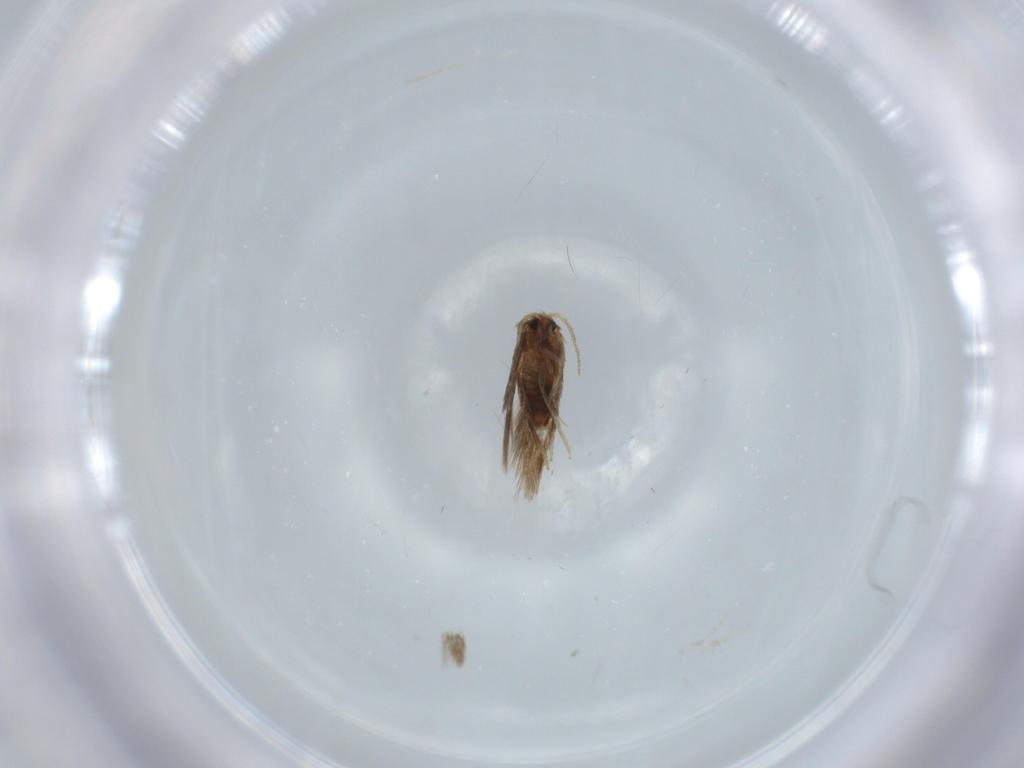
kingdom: Animalia
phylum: Arthropoda
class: Insecta
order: Lepidoptera
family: Nepticulidae
